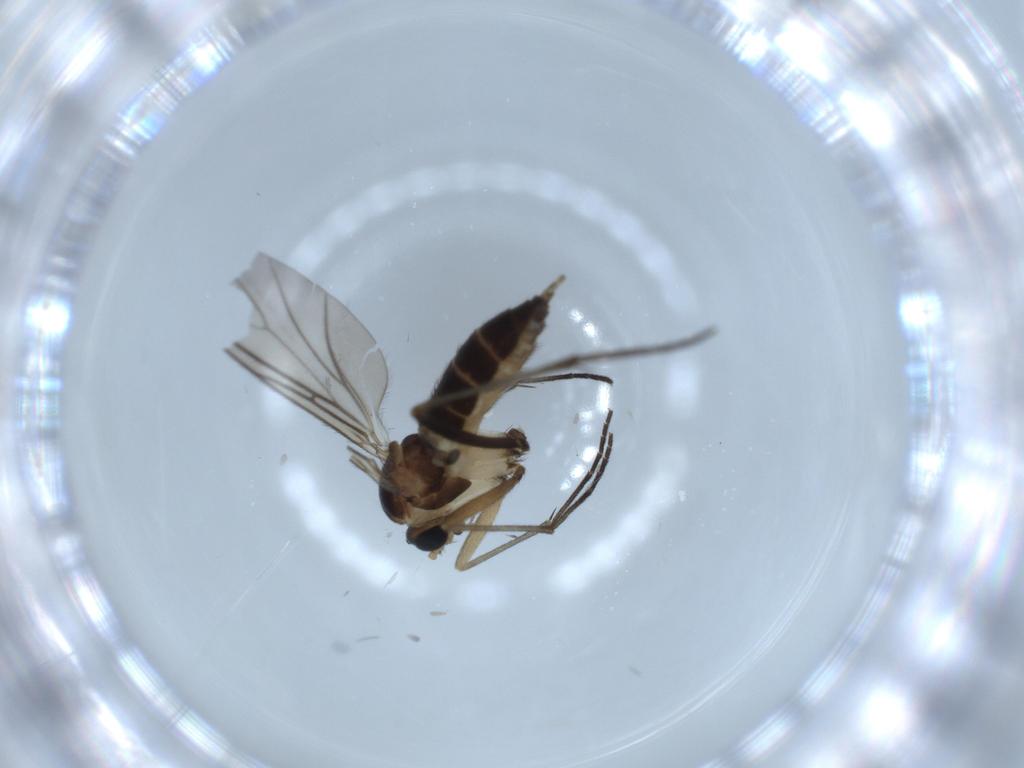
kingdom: Animalia
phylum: Arthropoda
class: Insecta
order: Diptera
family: Sciaridae
